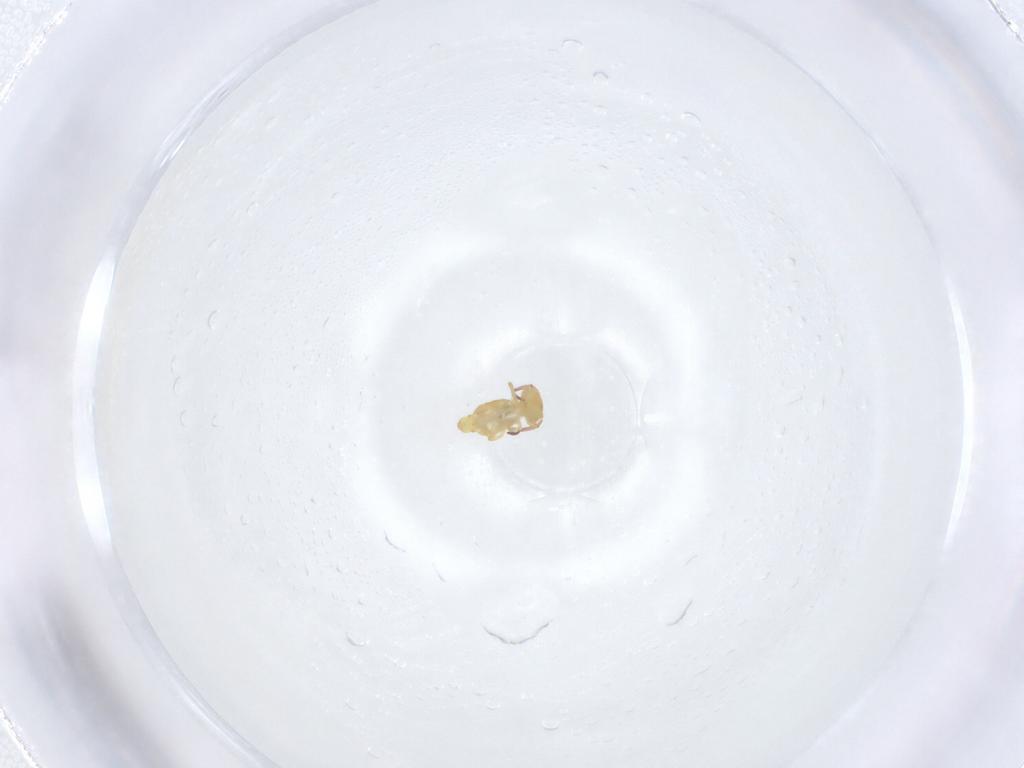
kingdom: Animalia
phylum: Arthropoda
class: Collembola
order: Symphypleona
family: Bourletiellidae
